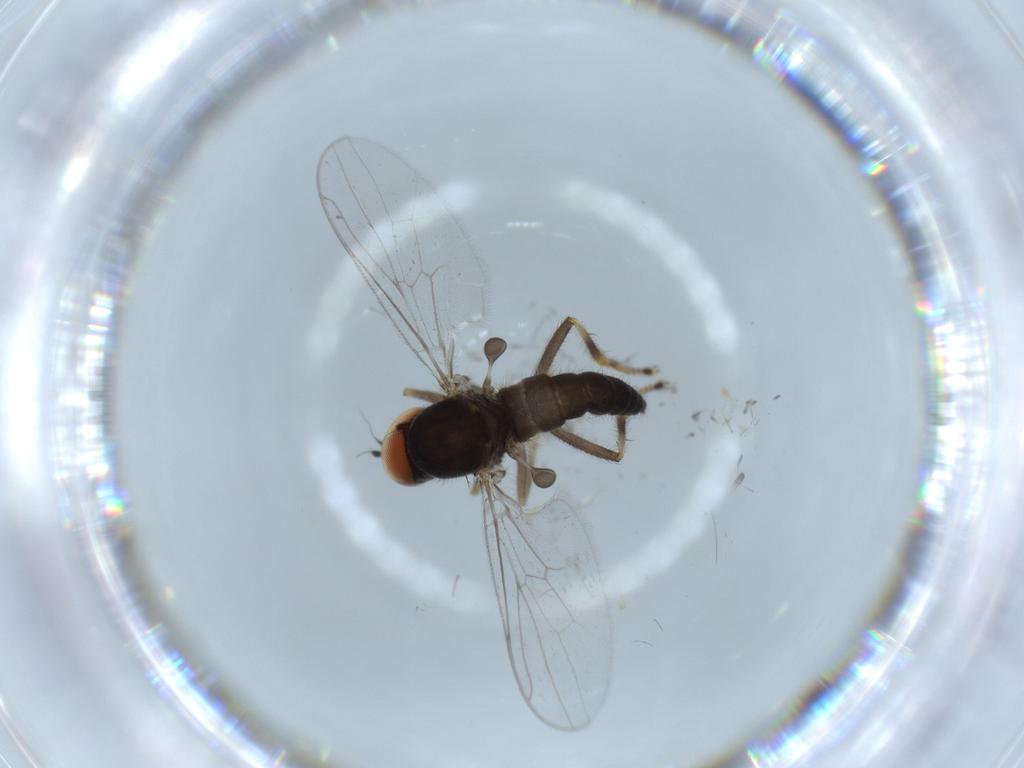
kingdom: Animalia
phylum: Arthropoda
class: Insecta
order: Diptera
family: Hybotidae
